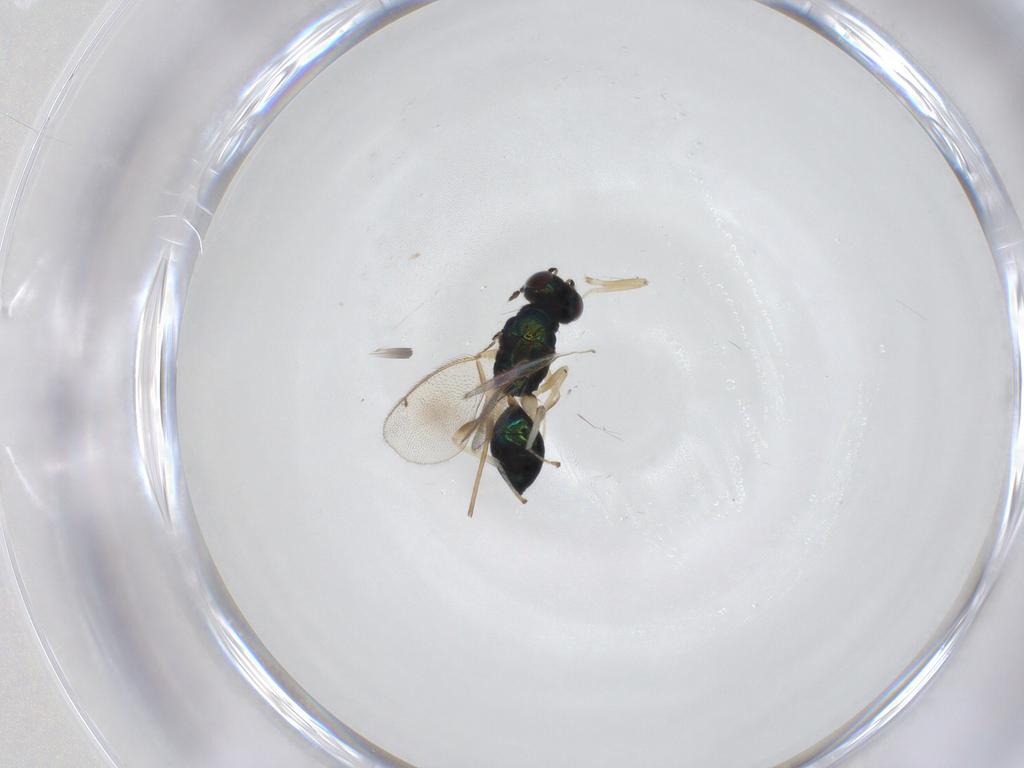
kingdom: Animalia
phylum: Arthropoda
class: Insecta
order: Hymenoptera
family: Eulophidae
